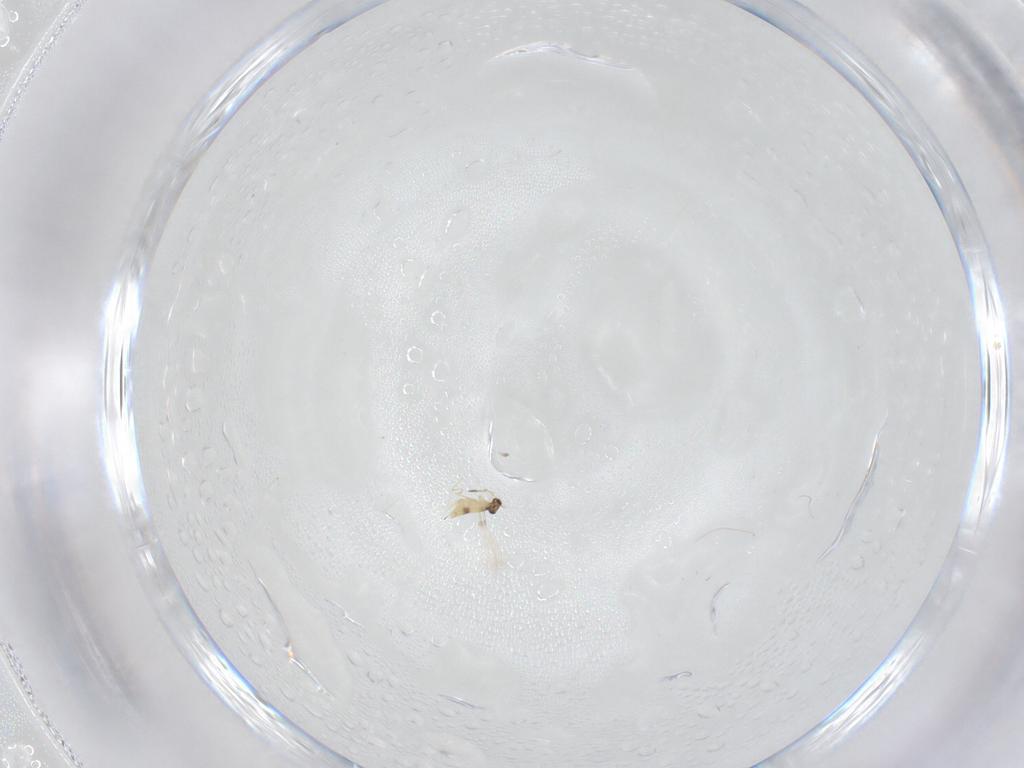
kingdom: Animalia
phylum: Arthropoda
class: Insecta
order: Hymenoptera
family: Mymaridae
